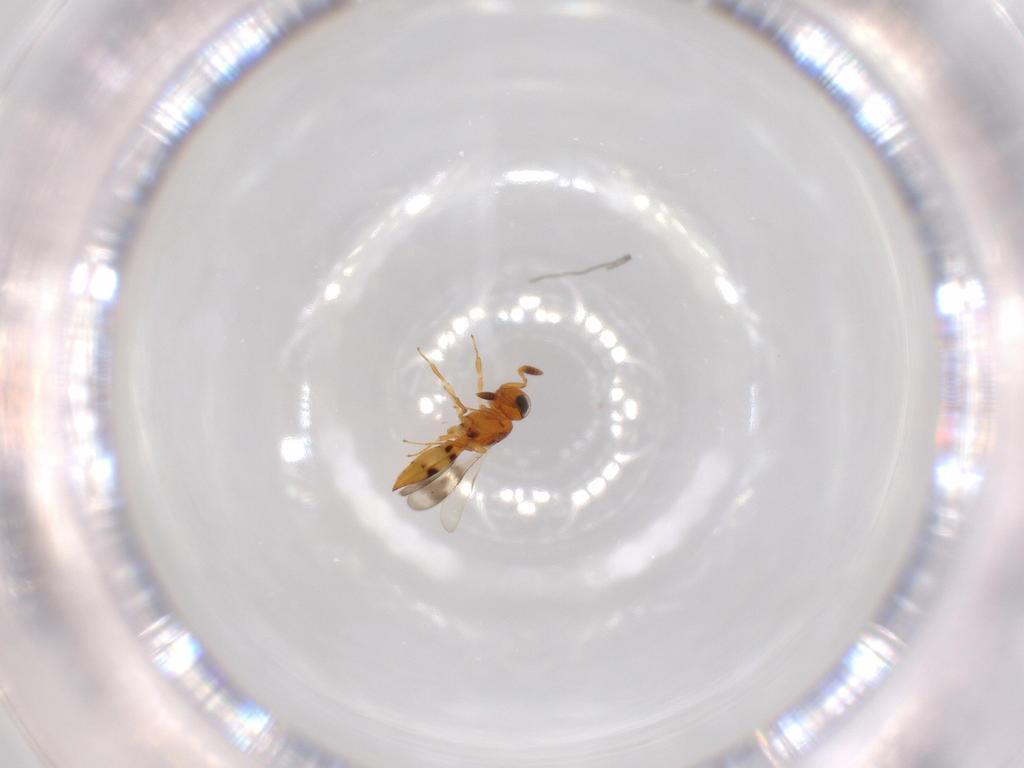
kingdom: Animalia
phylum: Arthropoda
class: Insecta
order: Hymenoptera
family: Scelionidae
